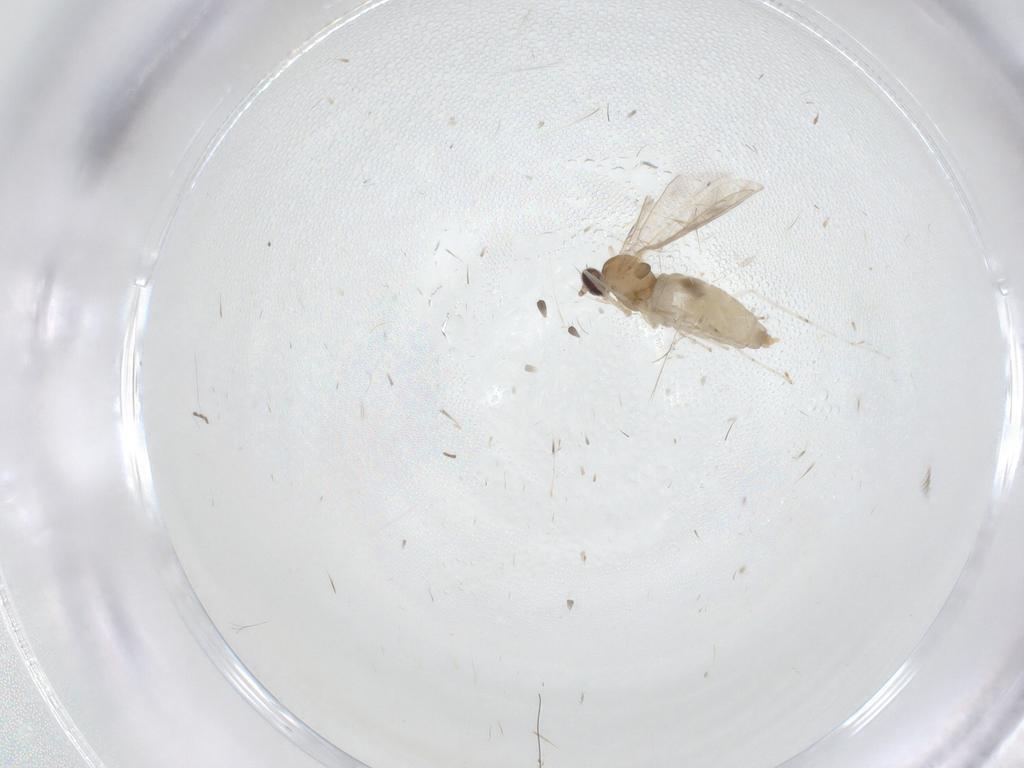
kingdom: Animalia
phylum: Arthropoda
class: Insecta
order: Diptera
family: Cecidomyiidae
